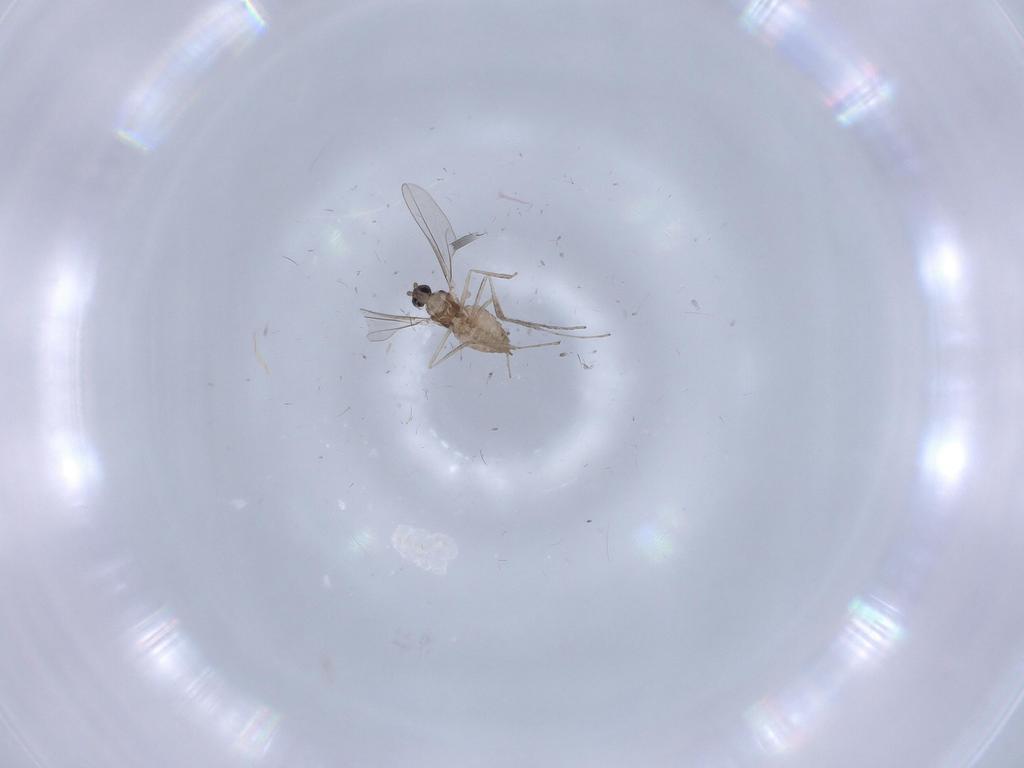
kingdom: Animalia
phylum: Arthropoda
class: Insecta
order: Diptera
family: Cecidomyiidae
